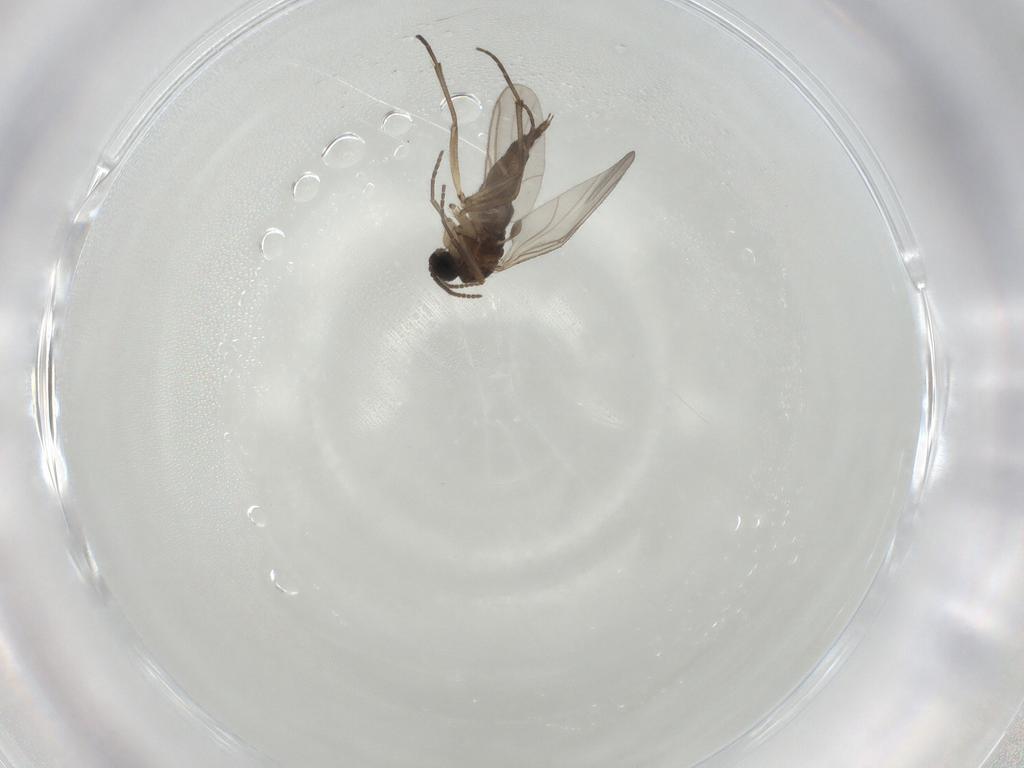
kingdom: Animalia
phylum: Arthropoda
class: Insecta
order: Diptera
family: Sciaridae
